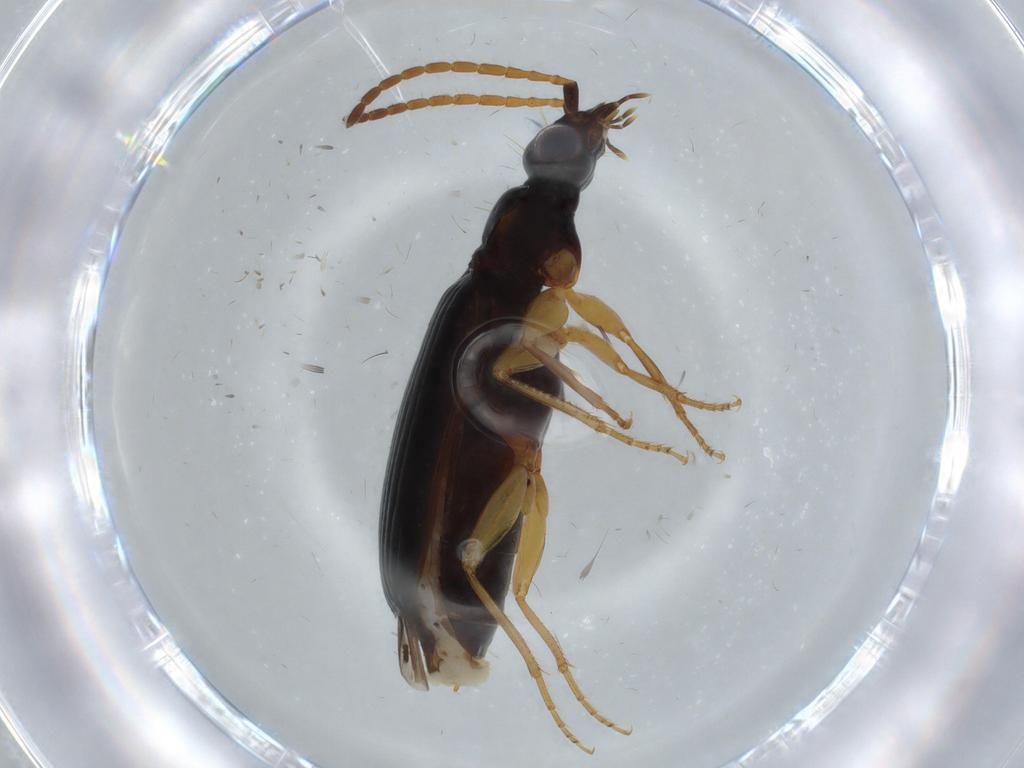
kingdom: Animalia
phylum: Arthropoda
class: Insecta
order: Coleoptera
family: Carabidae
